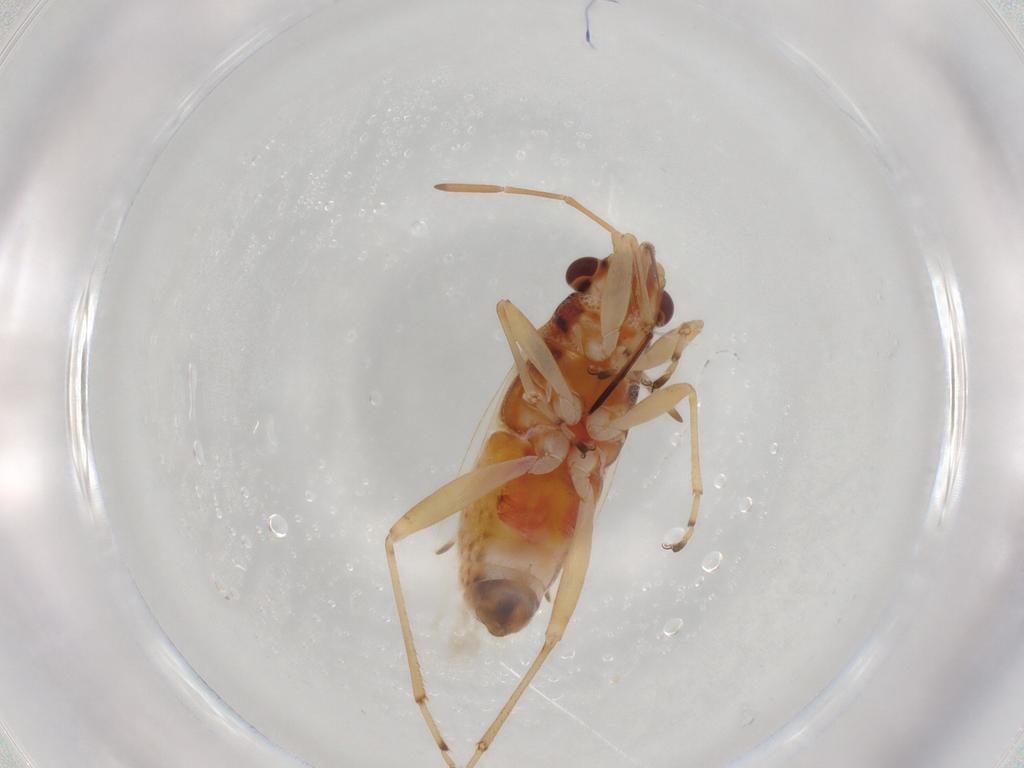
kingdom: Animalia
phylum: Arthropoda
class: Insecta
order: Hemiptera
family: Lygaeidae
